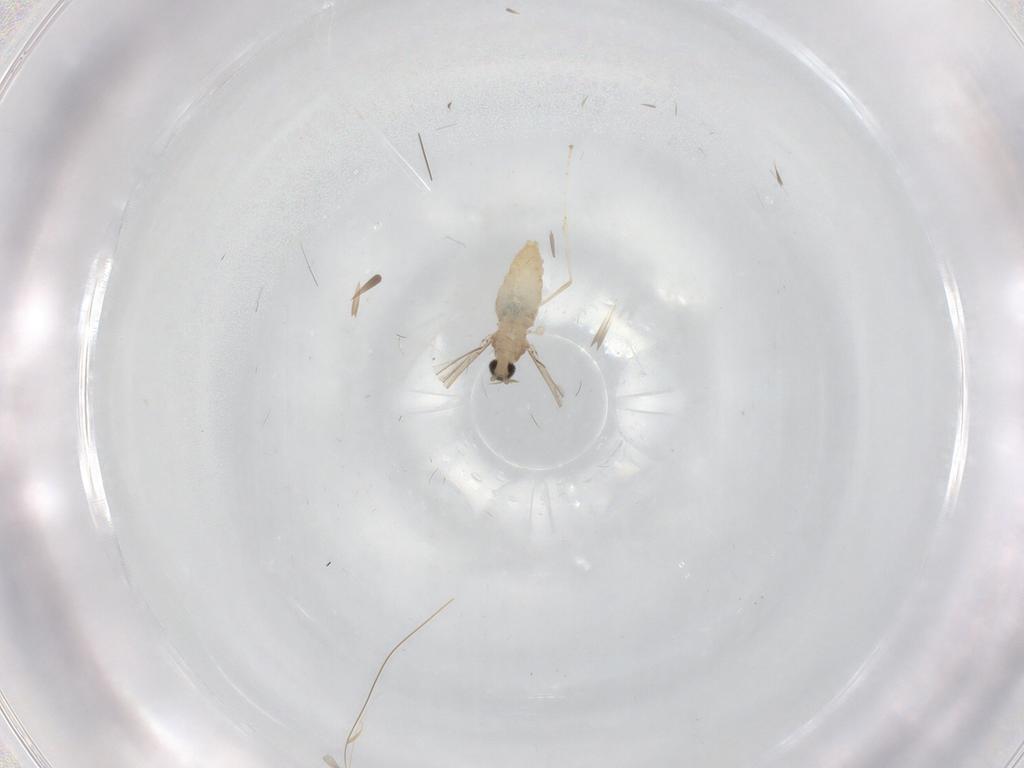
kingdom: Animalia
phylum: Arthropoda
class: Insecta
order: Diptera
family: Cecidomyiidae
